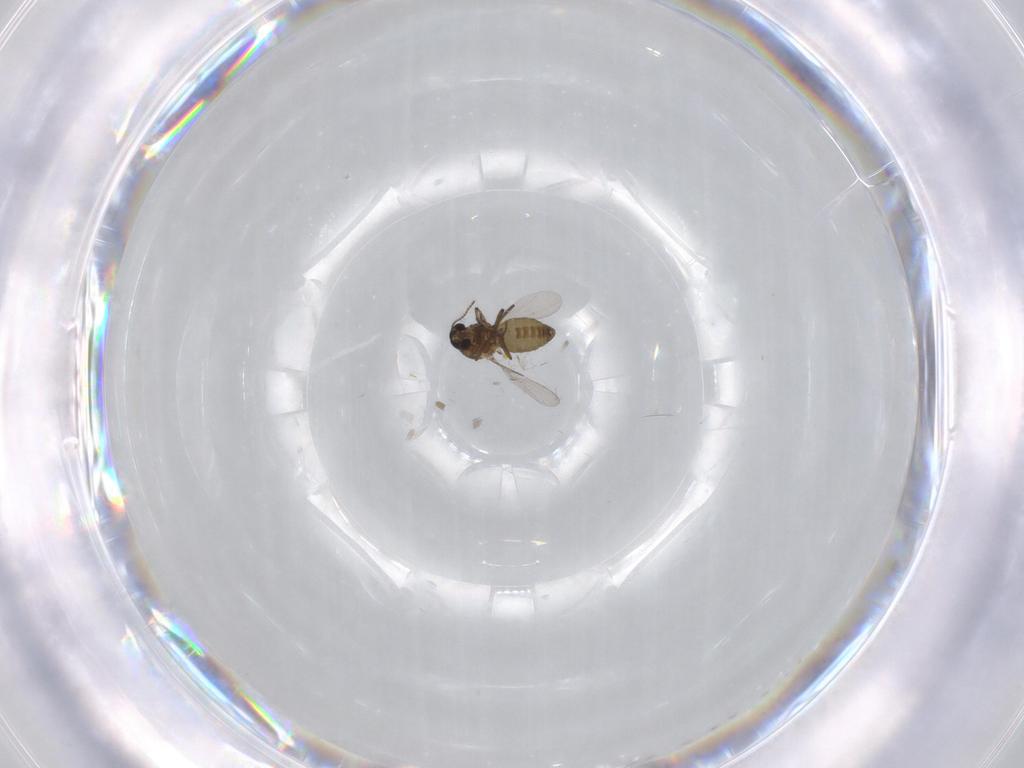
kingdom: Animalia
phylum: Arthropoda
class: Insecta
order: Diptera
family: Ceratopogonidae
